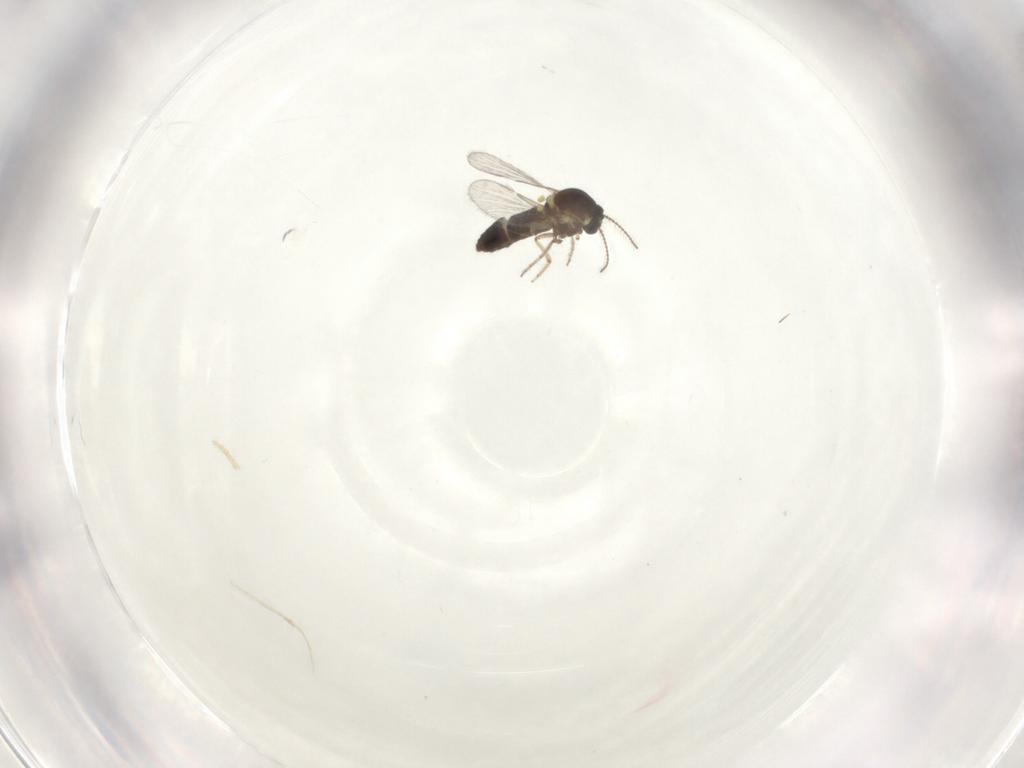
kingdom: Animalia
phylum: Arthropoda
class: Insecta
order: Diptera
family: Ceratopogonidae
